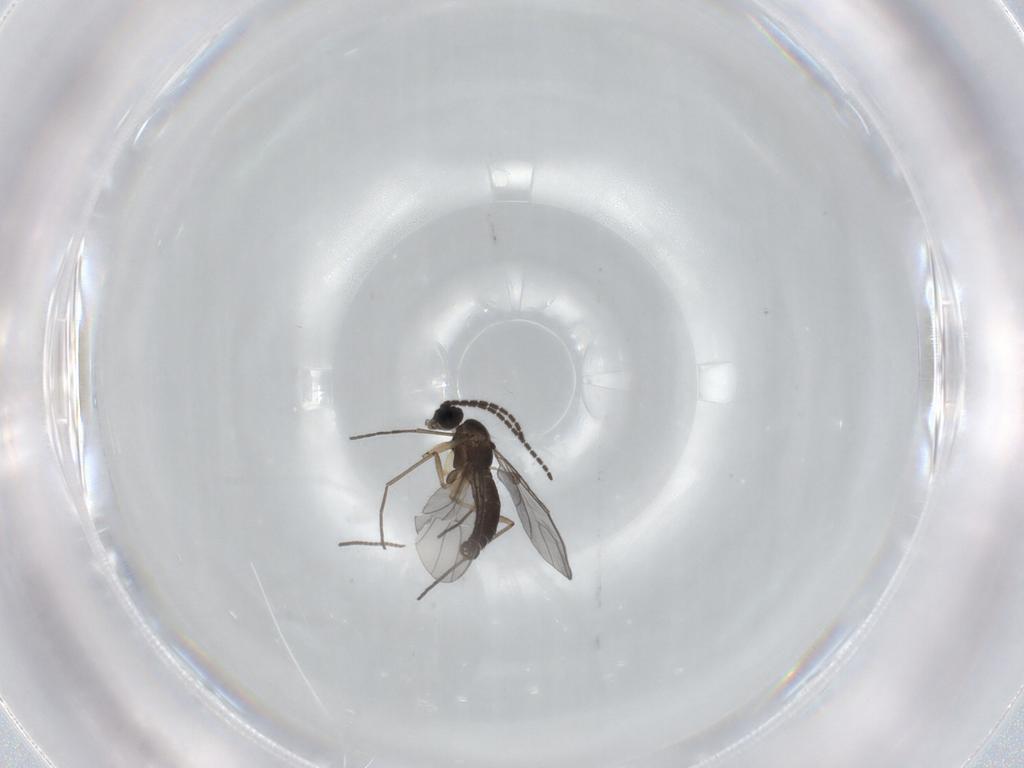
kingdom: Animalia
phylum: Arthropoda
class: Insecta
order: Diptera
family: Sciaridae
